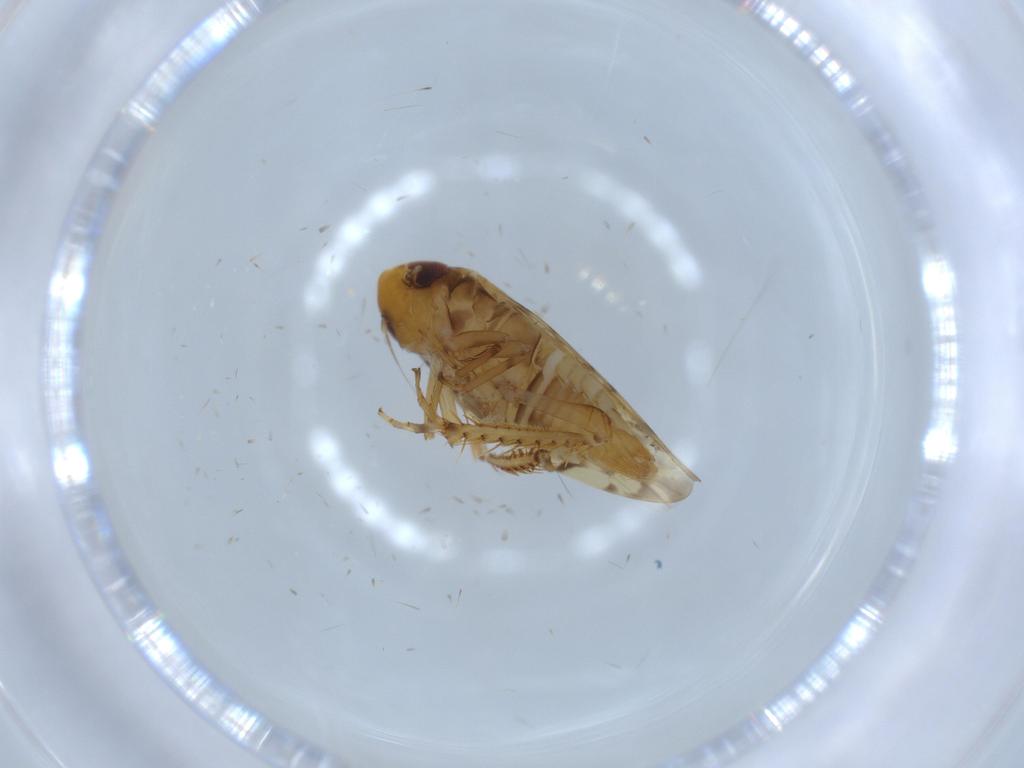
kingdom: Animalia
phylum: Arthropoda
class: Insecta
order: Hemiptera
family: Cicadellidae
